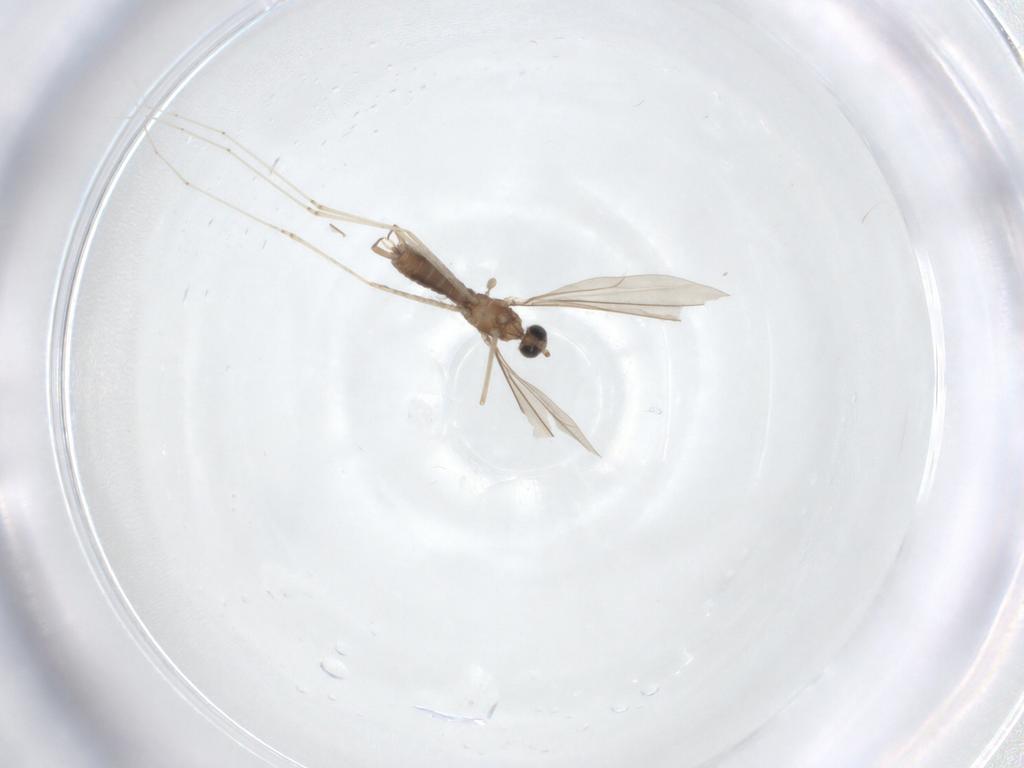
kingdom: Animalia
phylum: Arthropoda
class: Insecta
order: Diptera
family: Cecidomyiidae
